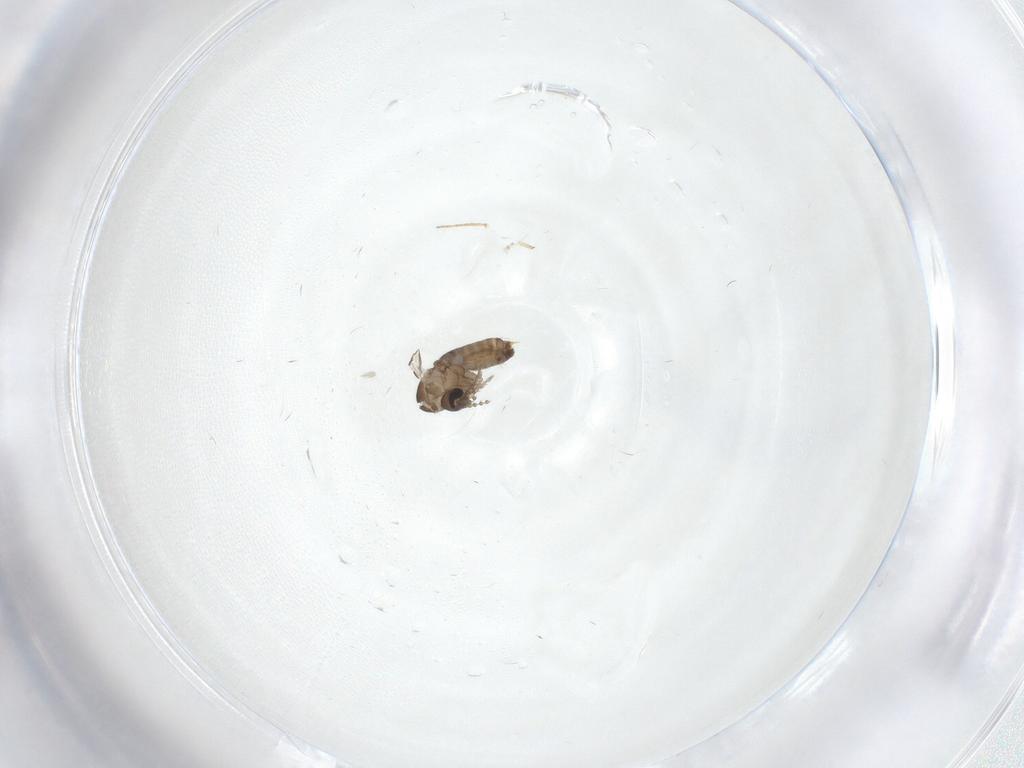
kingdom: Animalia
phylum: Arthropoda
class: Insecta
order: Diptera
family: Psychodidae
